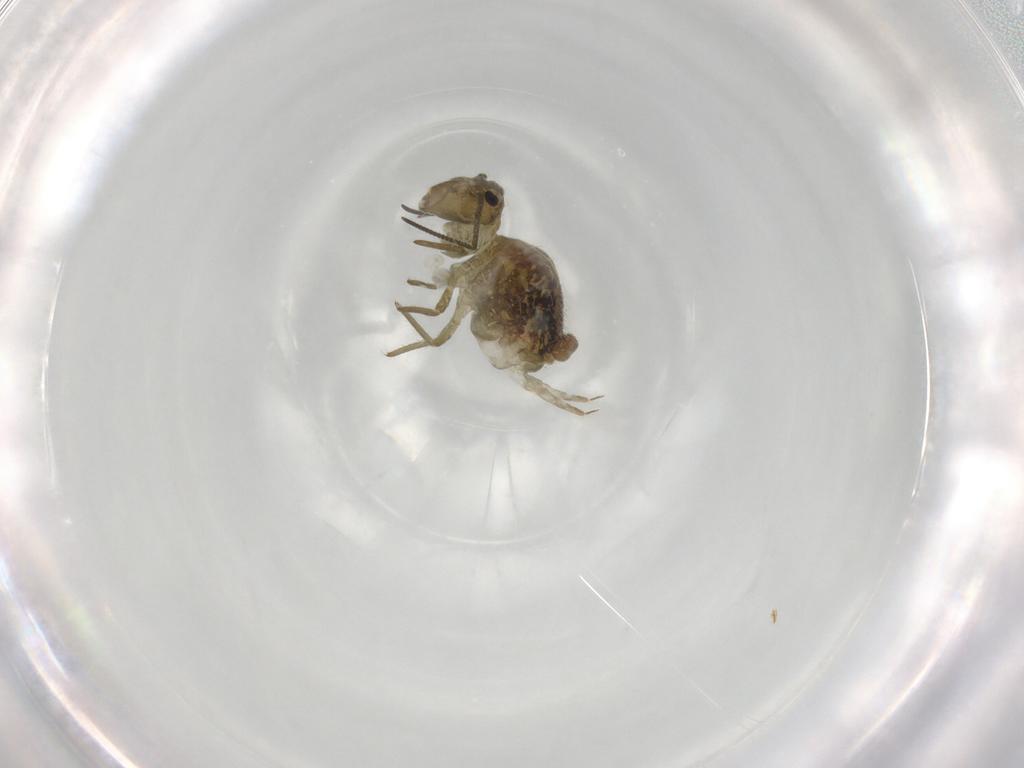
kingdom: Animalia
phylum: Arthropoda
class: Collembola
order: Symphypleona
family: Sminthuridae
